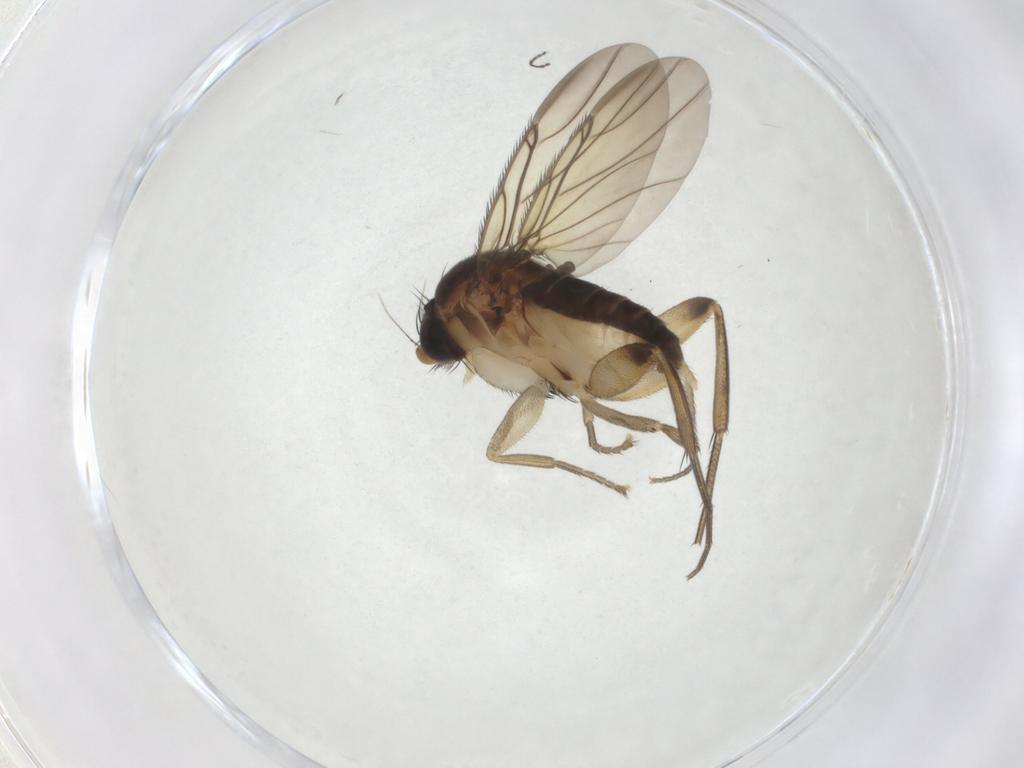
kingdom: Animalia
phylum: Arthropoda
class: Insecta
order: Diptera
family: Phoridae
